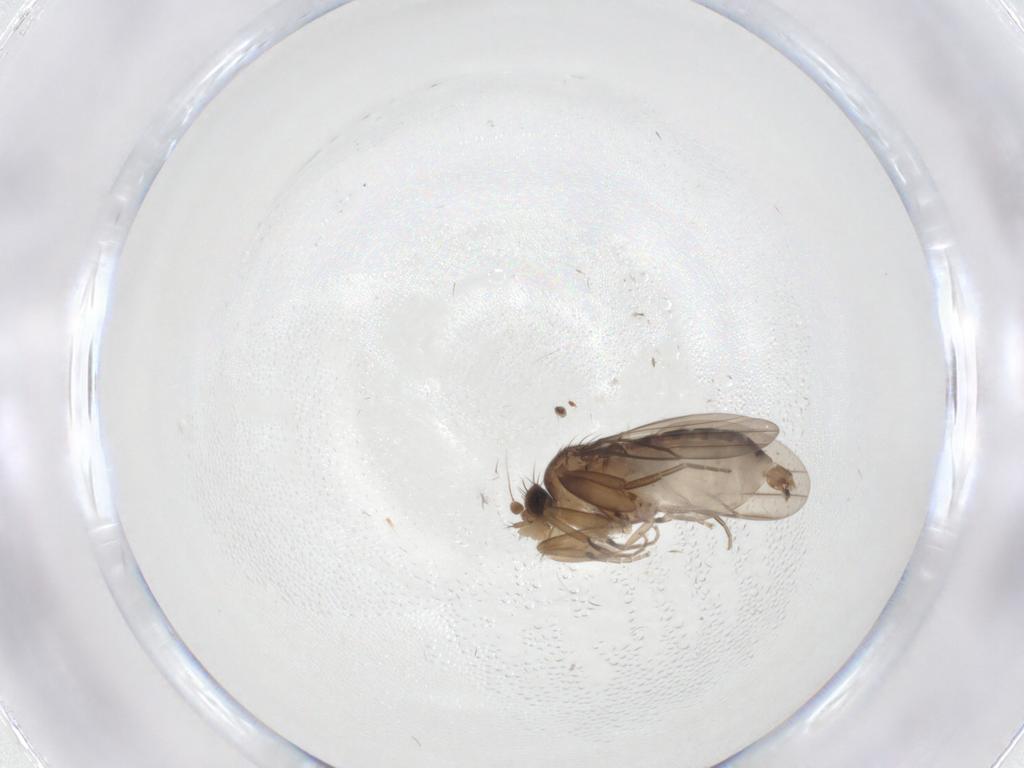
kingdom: Animalia
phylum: Arthropoda
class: Insecta
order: Diptera
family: Phoridae
